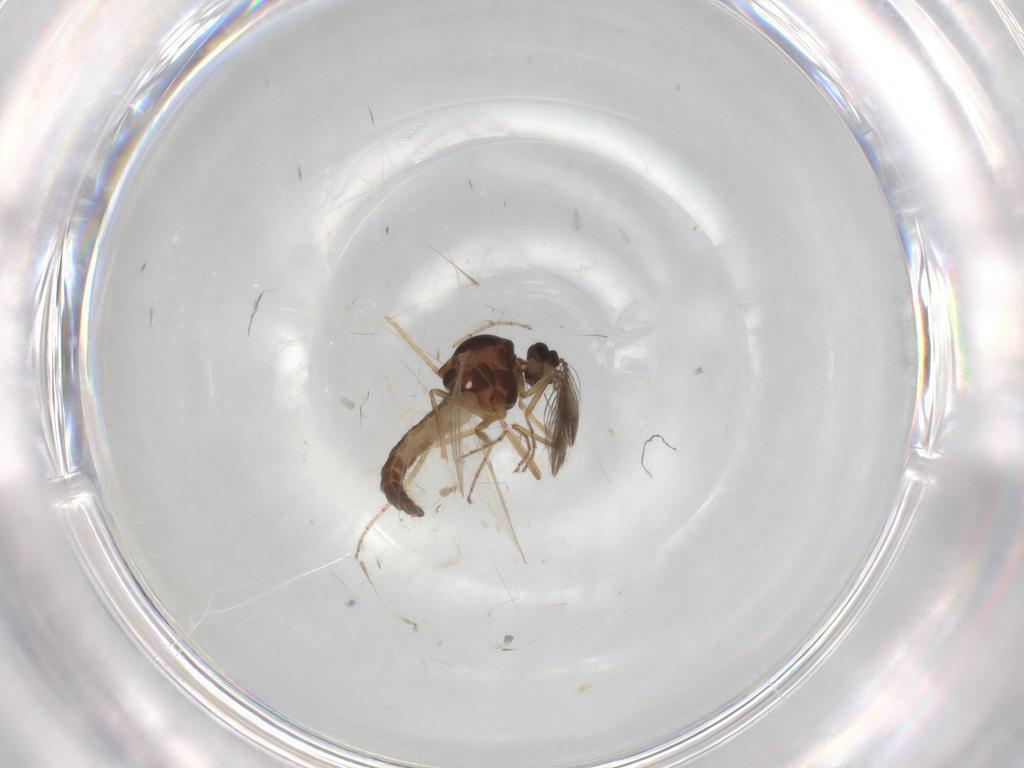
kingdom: Animalia
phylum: Arthropoda
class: Insecta
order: Diptera
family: Ceratopogonidae
